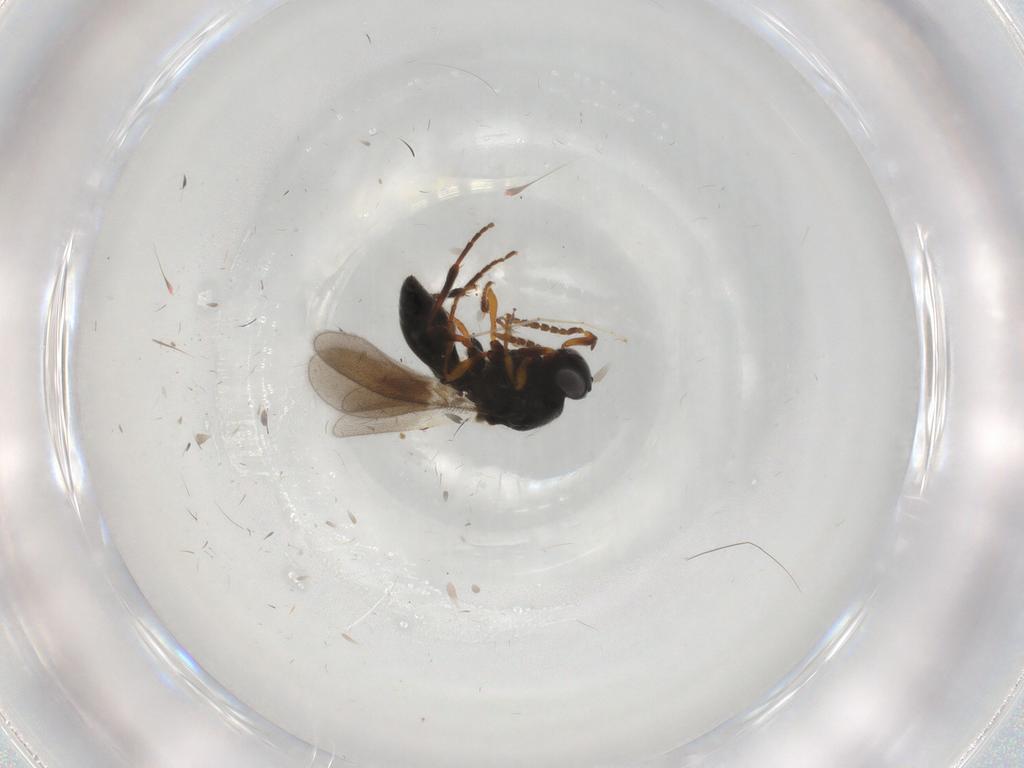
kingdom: Animalia
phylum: Arthropoda
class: Insecta
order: Hymenoptera
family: Platygastridae
